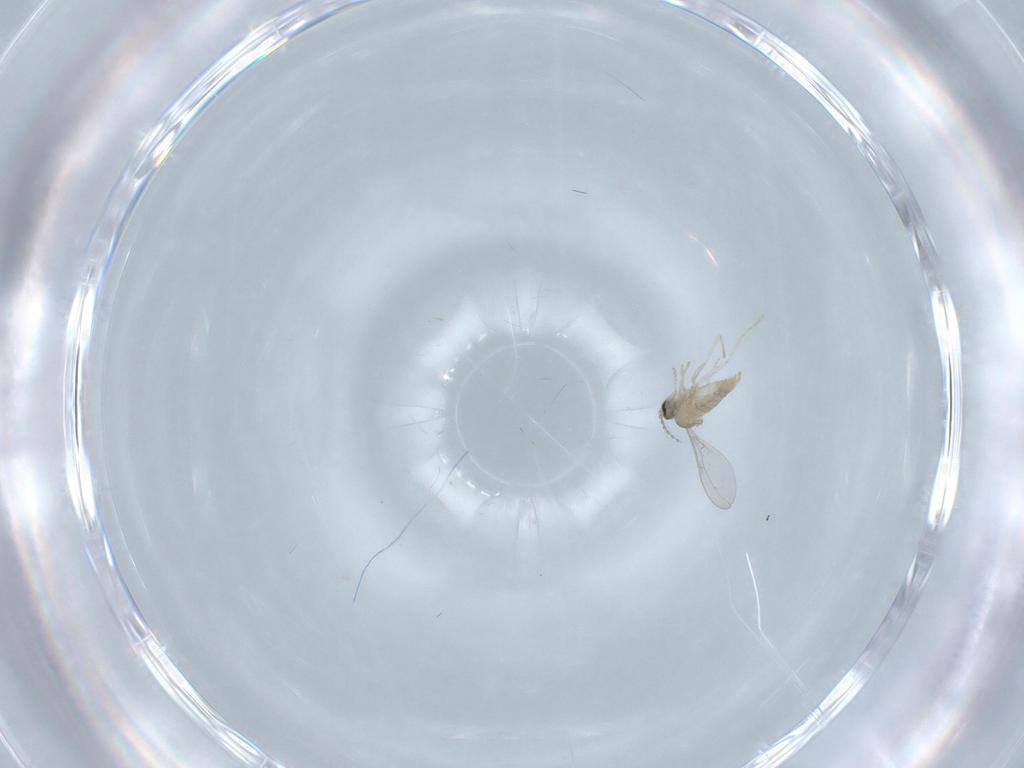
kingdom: Animalia
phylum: Arthropoda
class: Insecta
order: Diptera
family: Cecidomyiidae
